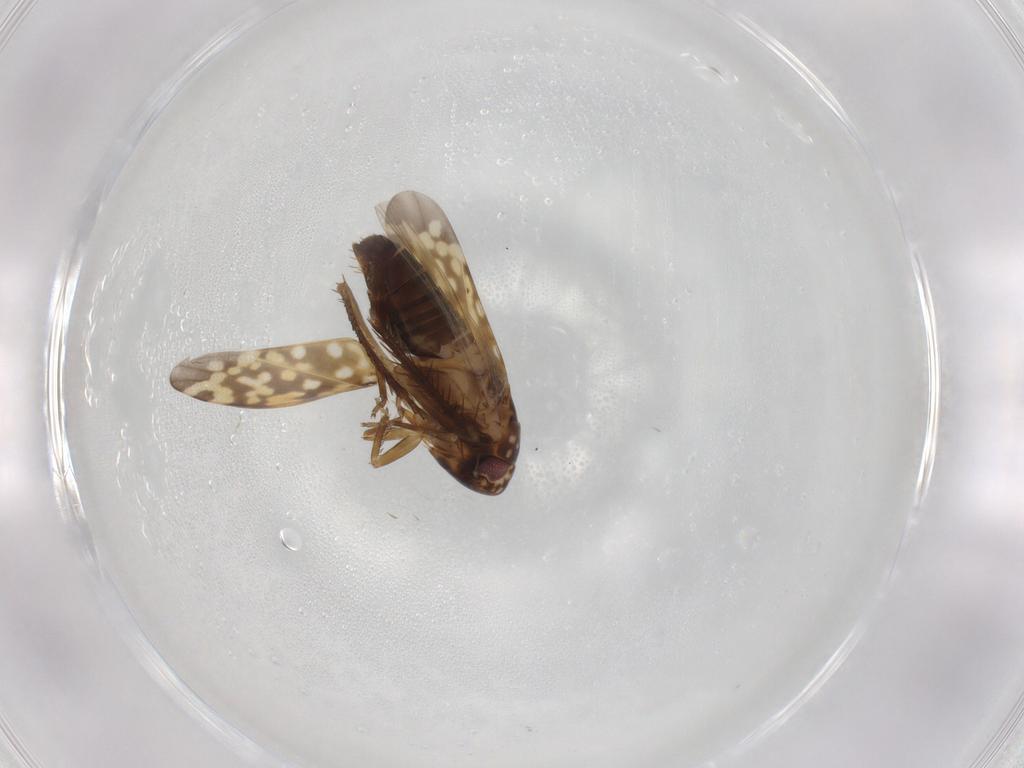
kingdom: Animalia
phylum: Arthropoda
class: Insecta
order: Hemiptera
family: Cicadellidae
